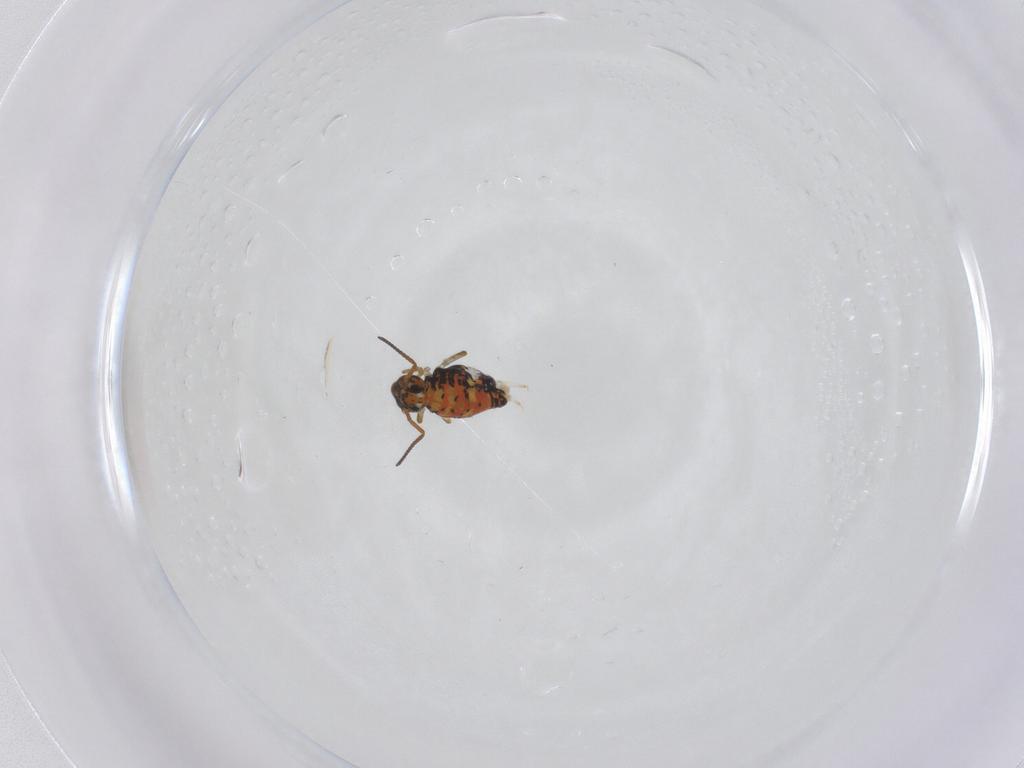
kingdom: Animalia
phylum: Arthropoda
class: Collembola
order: Symphypleona
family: Katiannidae
